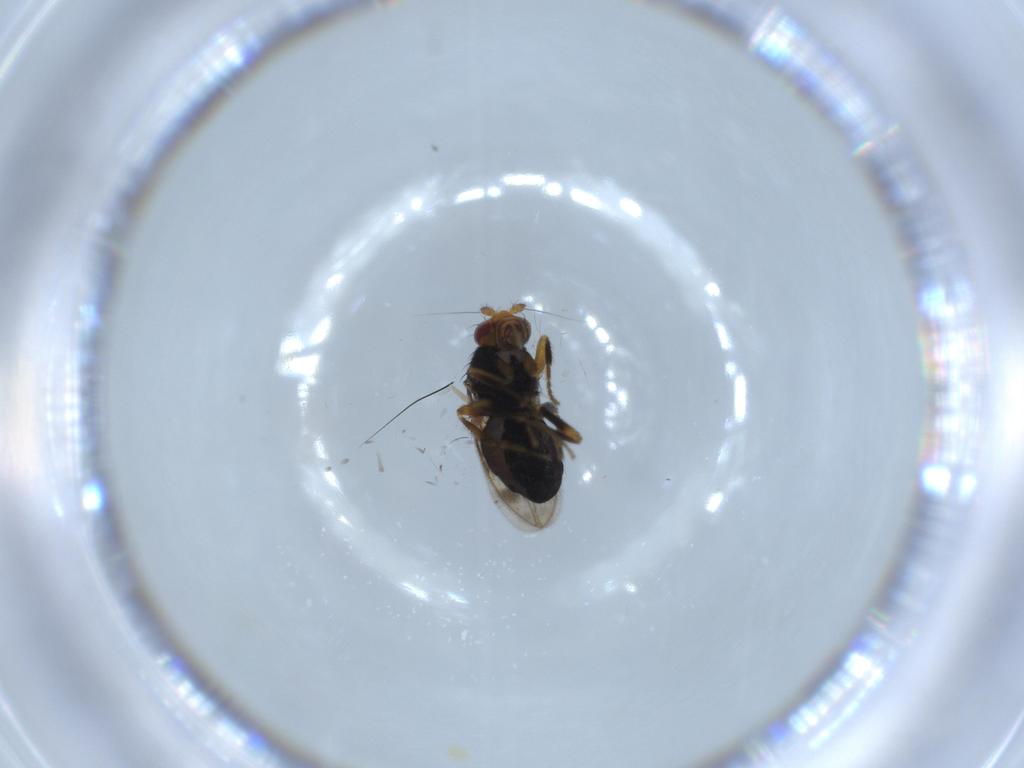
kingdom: Animalia
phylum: Arthropoda
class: Insecta
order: Diptera
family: Sphaeroceridae
